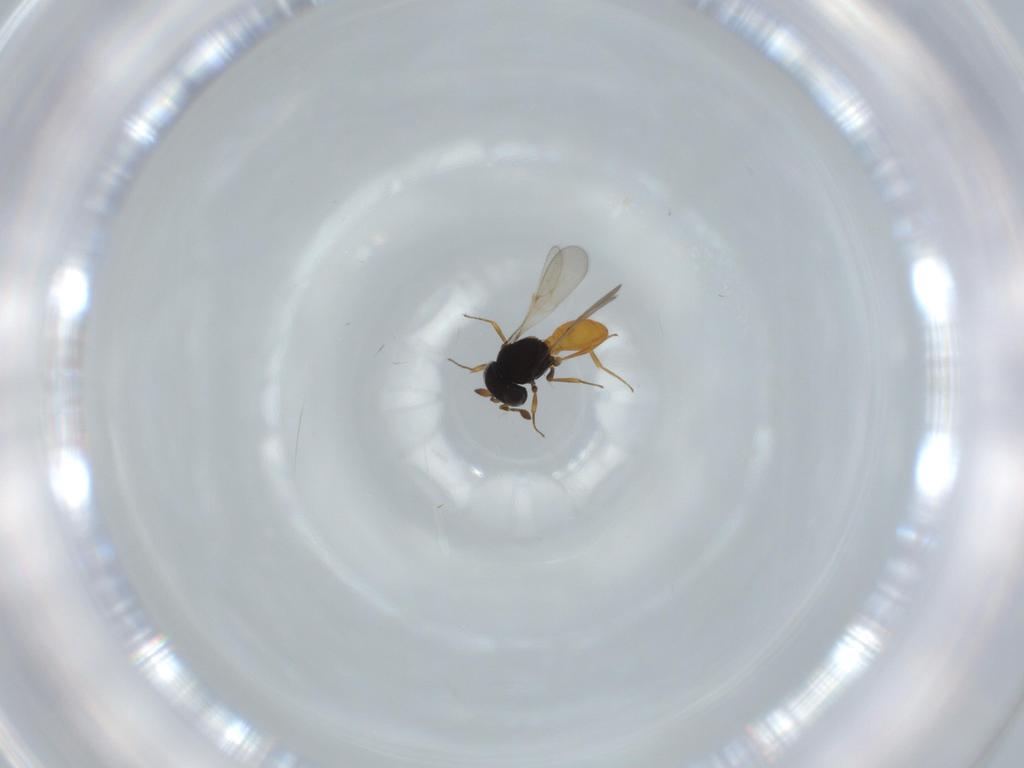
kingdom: Animalia
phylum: Arthropoda
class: Insecta
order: Hymenoptera
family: Scelionidae
